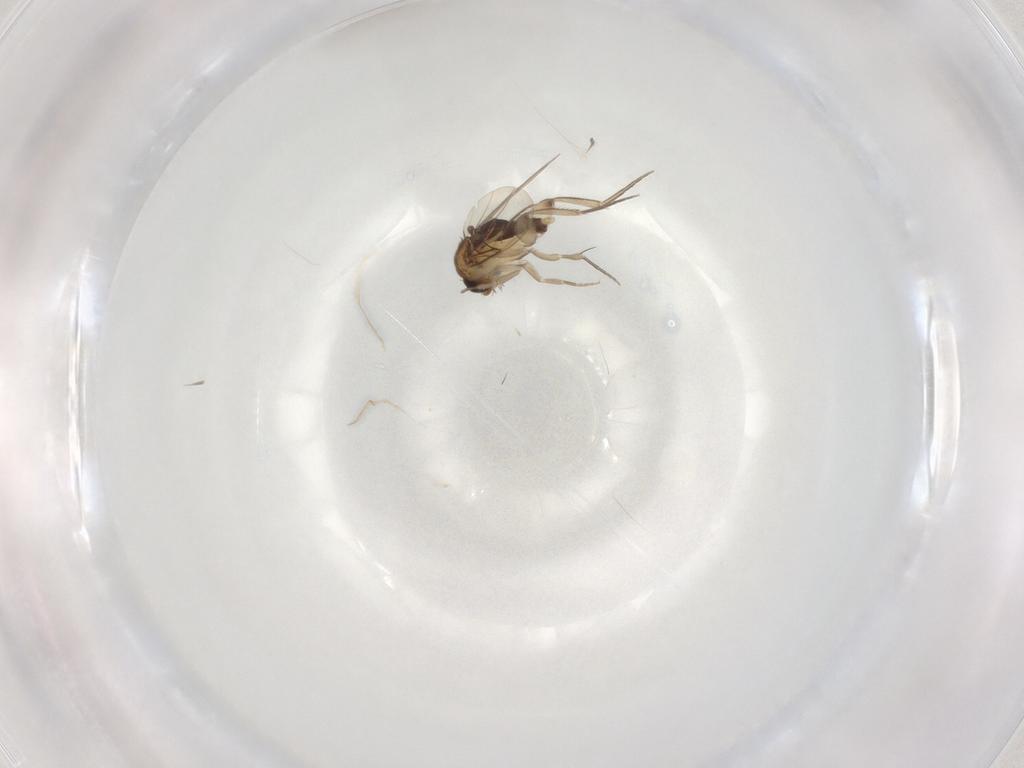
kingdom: Animalia
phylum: Arthropoda
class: Insecta
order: Diptera
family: Phoridae
